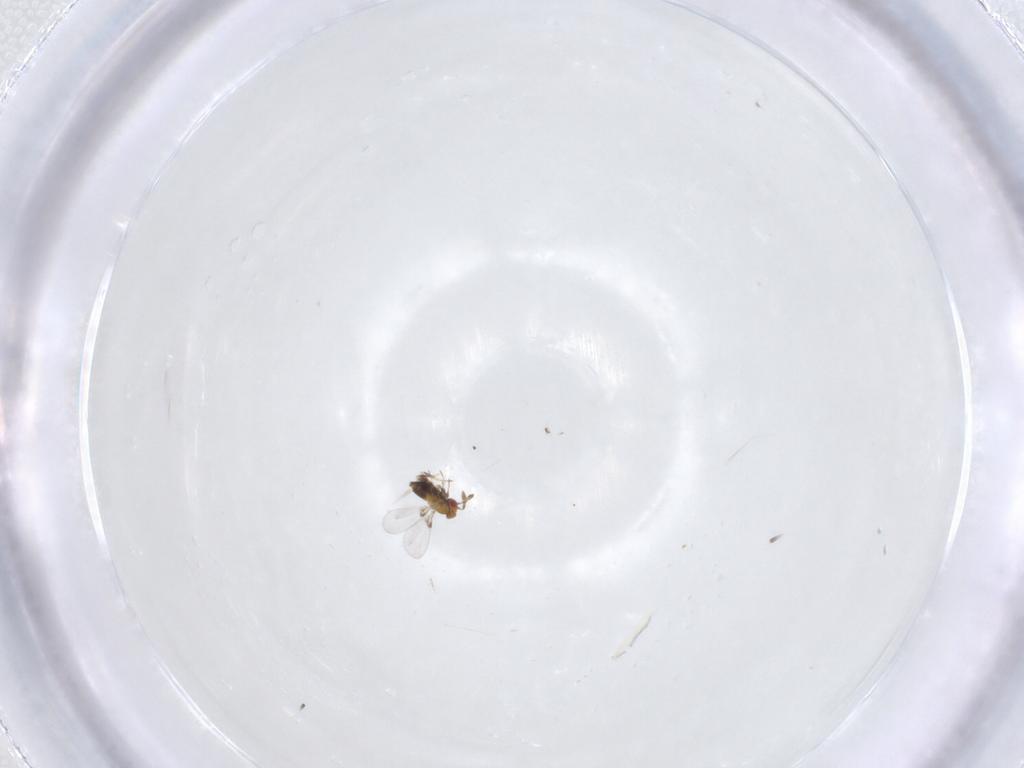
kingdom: Animalia
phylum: Arthropoda
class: Insecta
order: Hymenoptera
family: Trichogrammatidae
